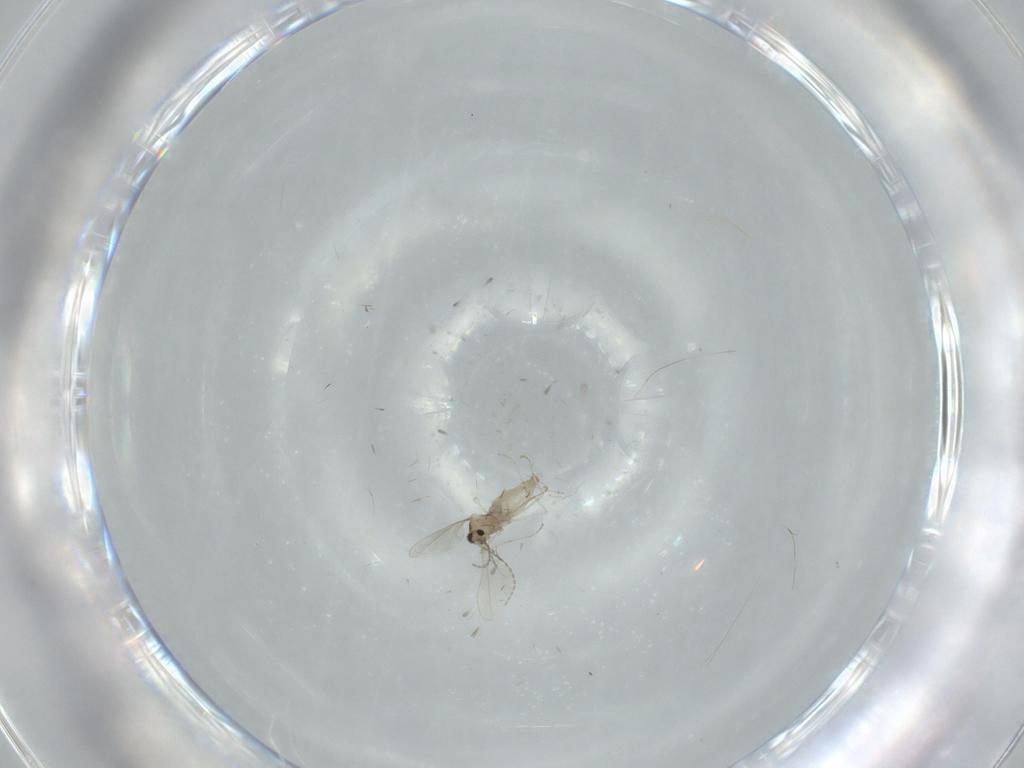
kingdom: Animalia
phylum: Arthropoda
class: Insecta
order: Diptera
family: Cecidomyiidae
